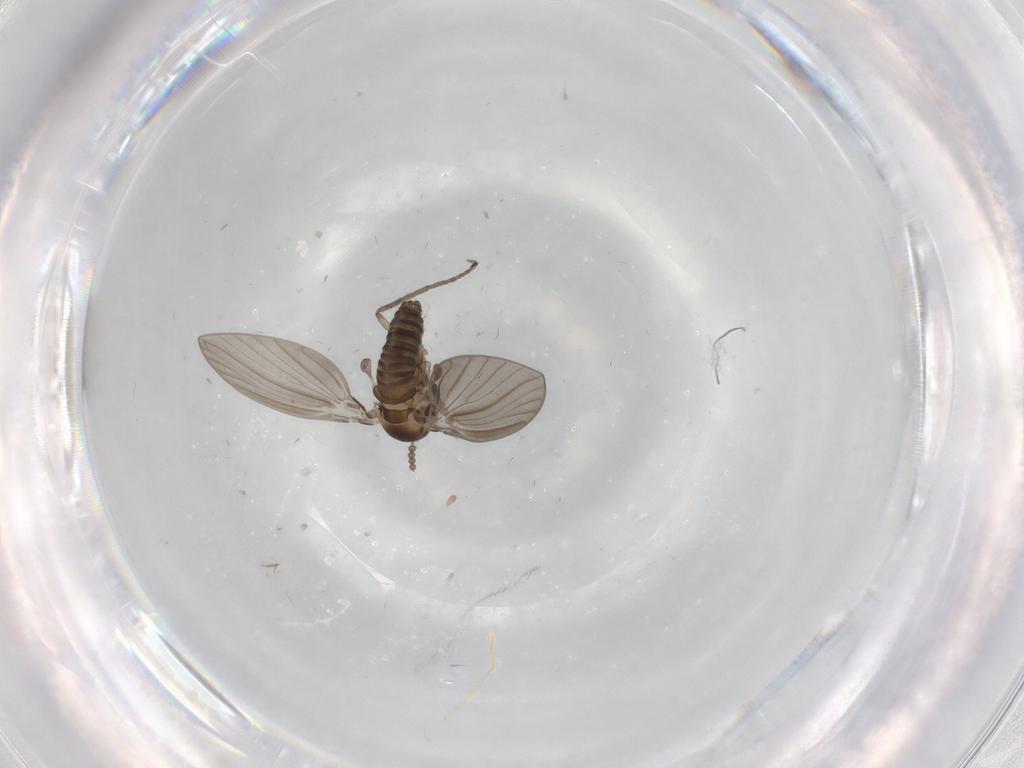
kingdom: Animalia
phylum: Arthropoda
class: Insecta
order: Diptera
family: Psychodidae
